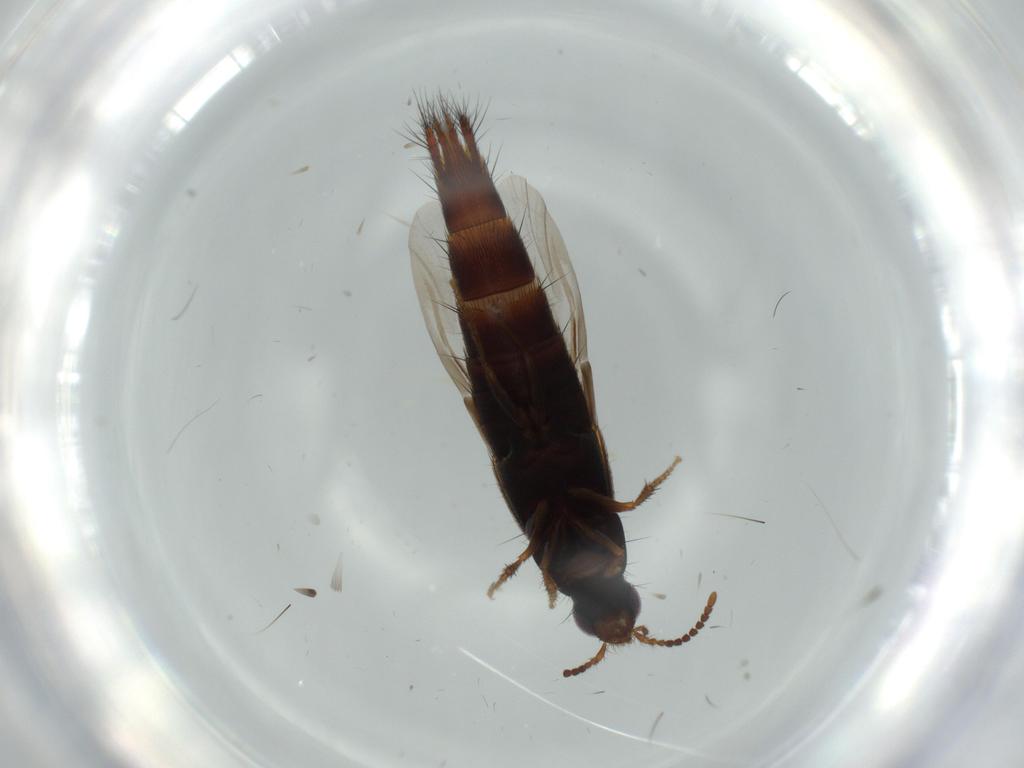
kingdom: Animalia
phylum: Arthropoda
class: Insecta
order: Coleoptera
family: Staphylinidae
